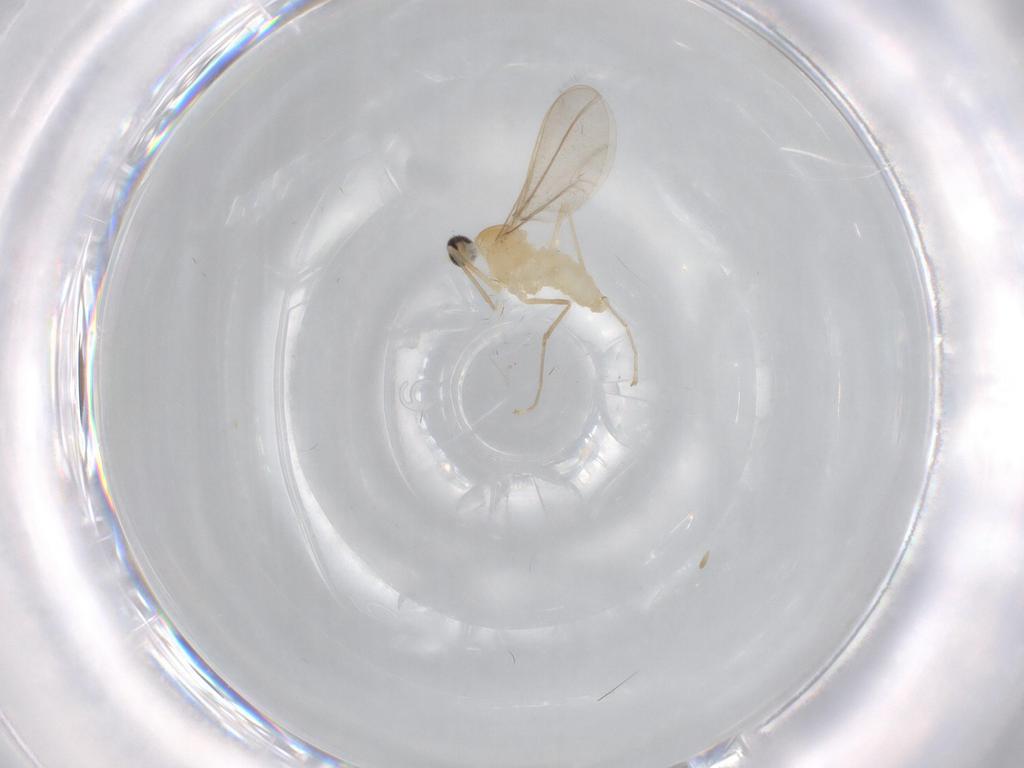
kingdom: Animalia
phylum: Arthropoda
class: Insecta
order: Diptera
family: Cecidomyiidae
